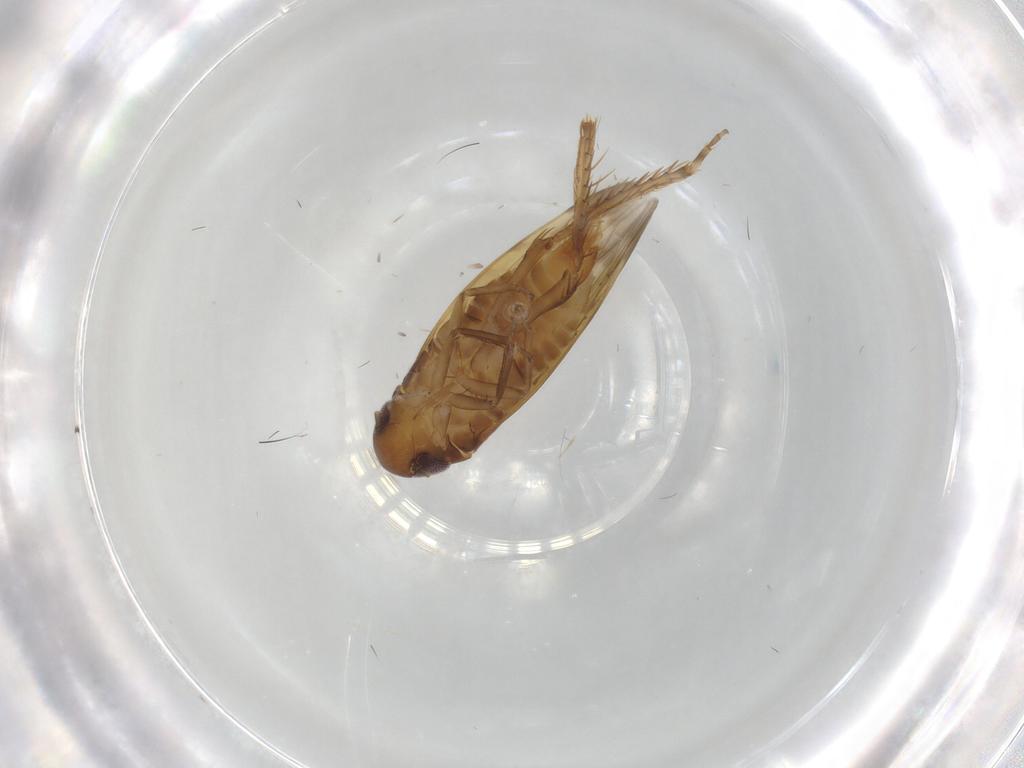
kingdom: Animalia
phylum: Arthropoda
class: Insecta
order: Hemiptera
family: Cicadellidae
